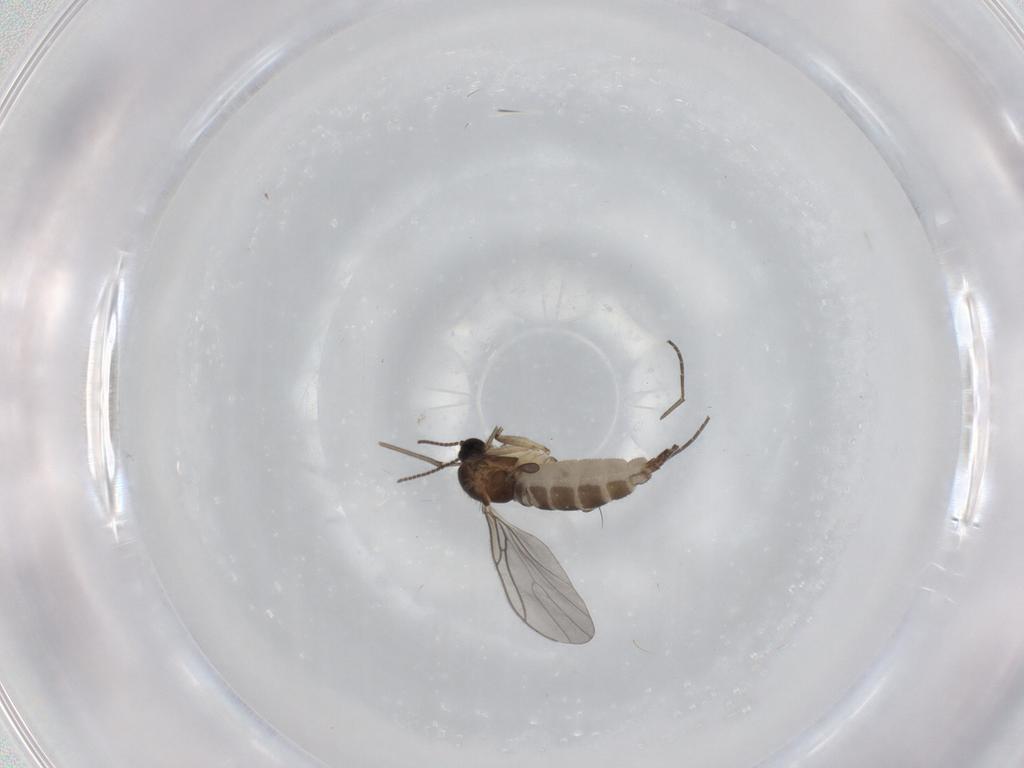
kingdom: Animalia
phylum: Arthropoda
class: Insecta
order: Diptera
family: Sciaridae
